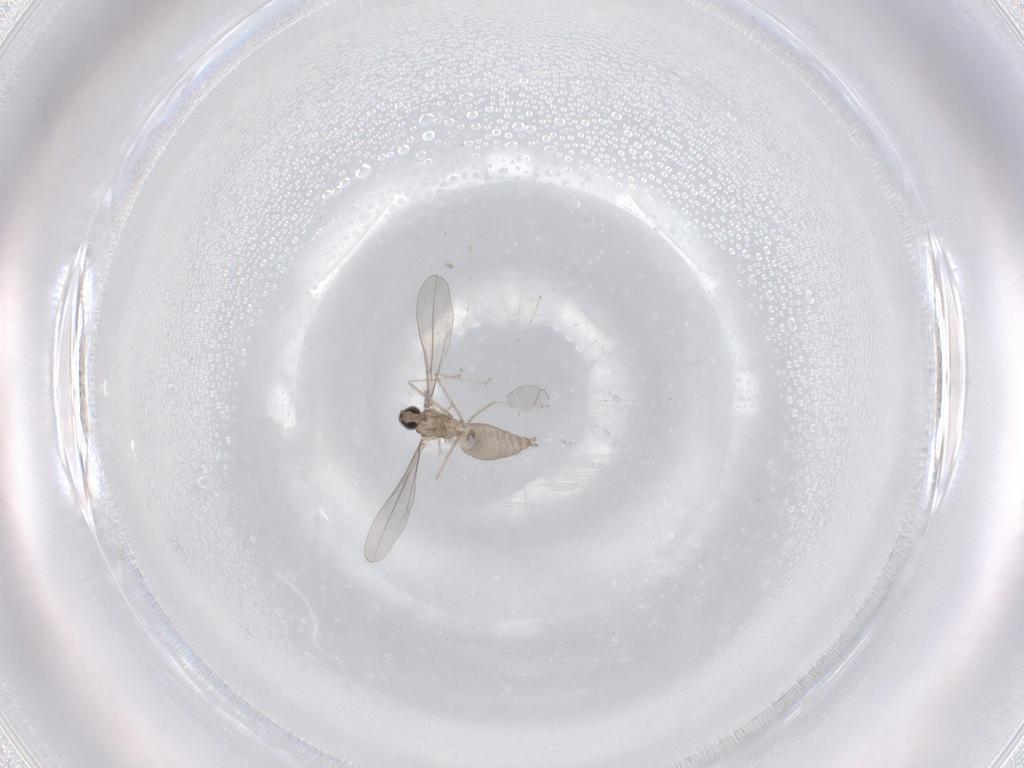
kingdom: Animalia
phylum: Arthropoda
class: Insecta
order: Diptera
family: Cecidomyiidae
